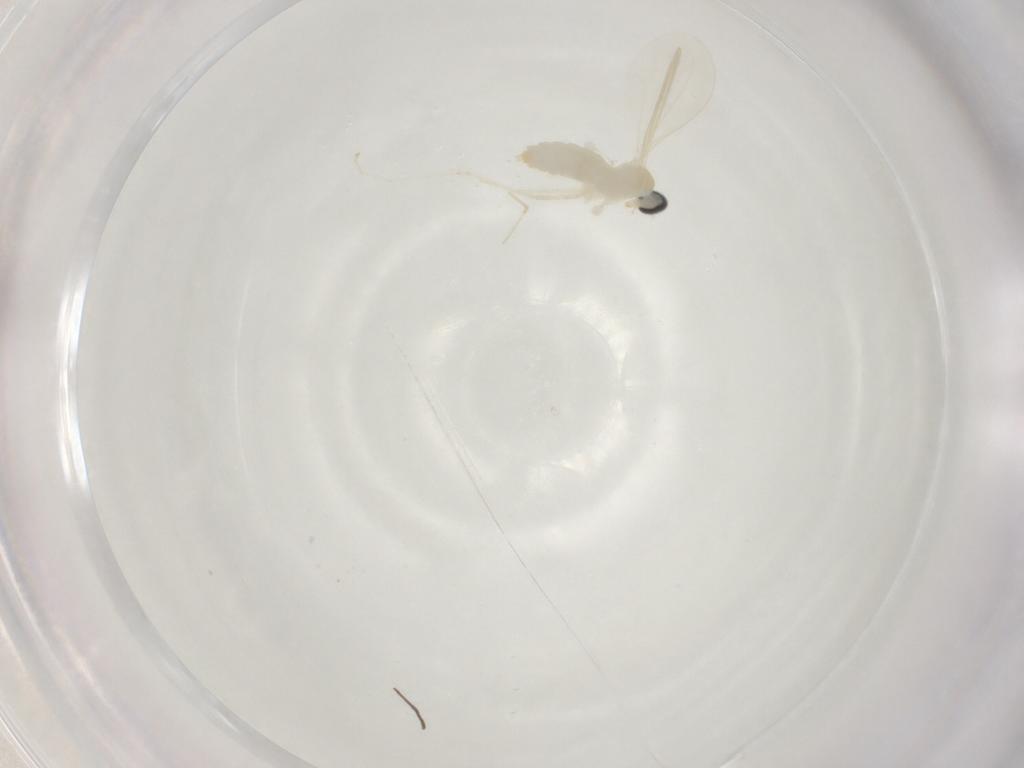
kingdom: Animalia
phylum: Arthropoda
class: Insecta
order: Diptera
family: Cecidomyiidae
